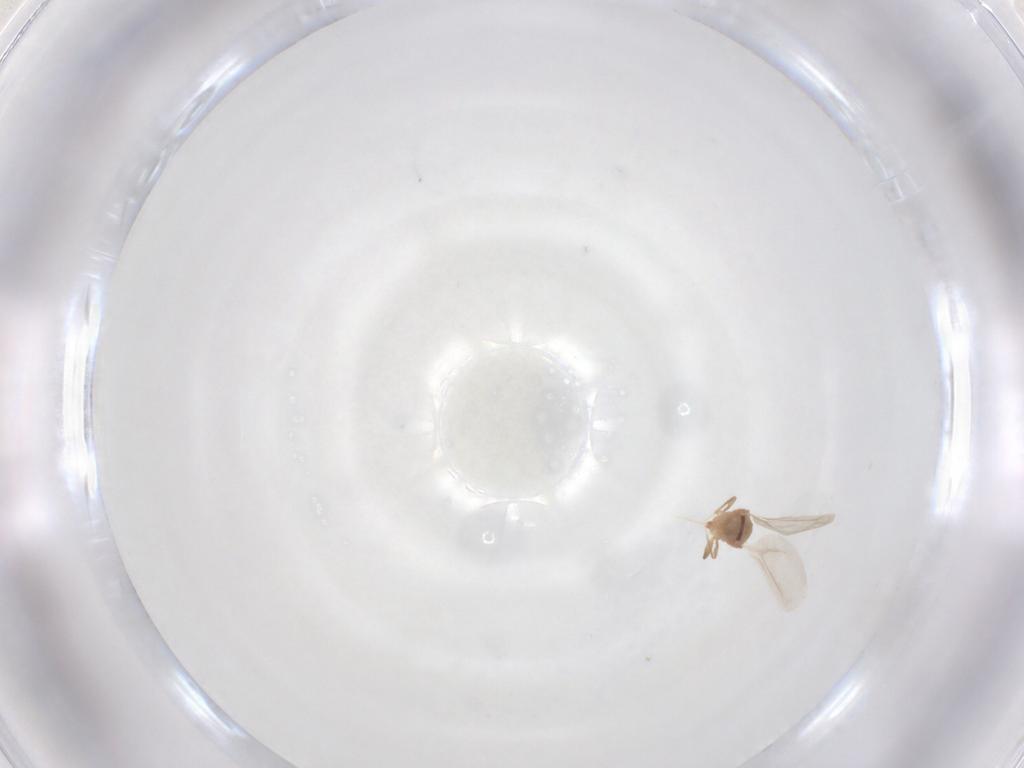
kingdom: Animalia
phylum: Arthropoda
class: Insecta
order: Hemiptera
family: Diaspididae
